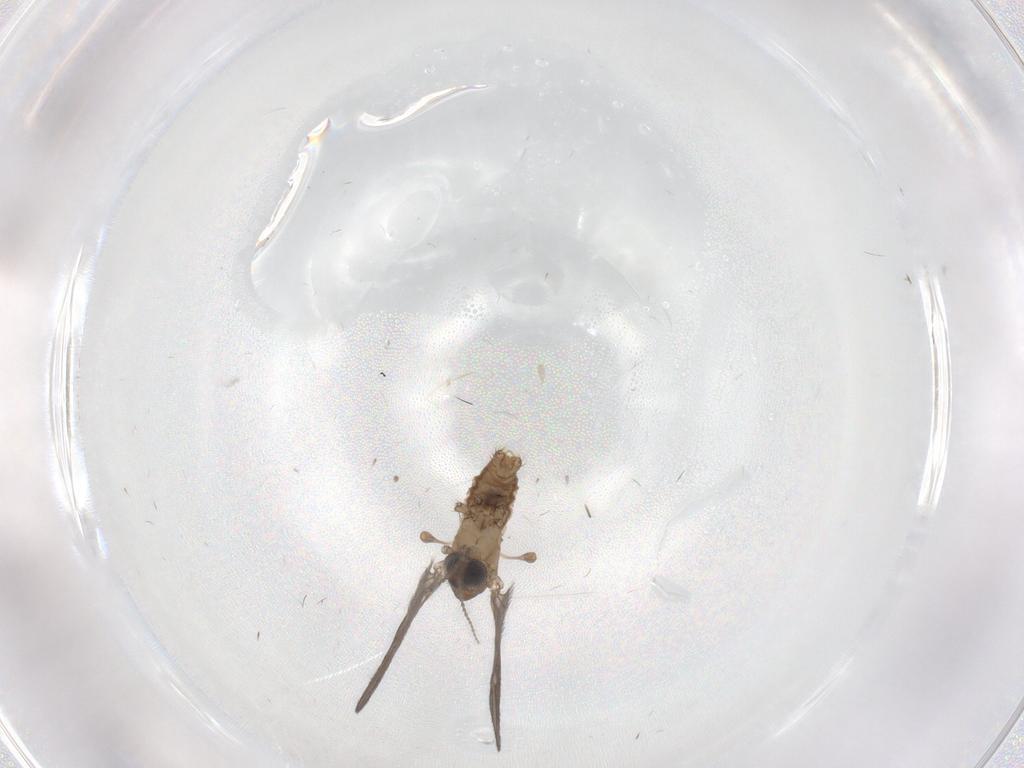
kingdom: Animalia
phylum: Arthropoda
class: Insecta
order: Diptera
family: Limoniidae
